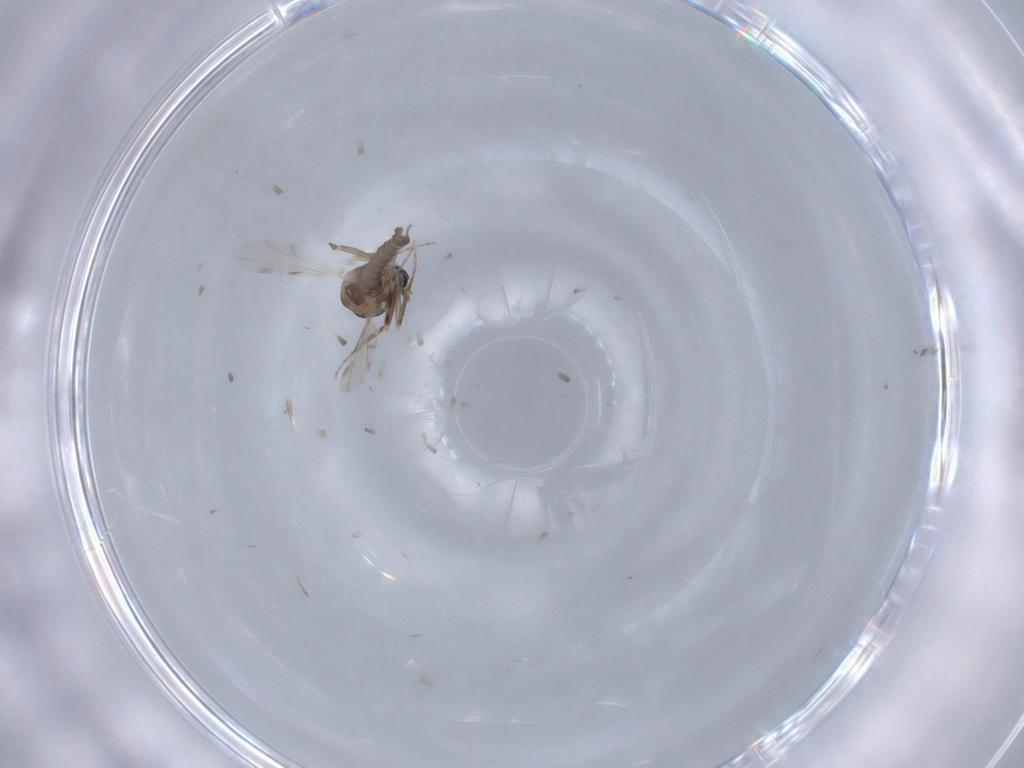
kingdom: Animalia
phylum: Arthropoda
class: Insecta
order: Diptera
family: Ceratopogonidae
